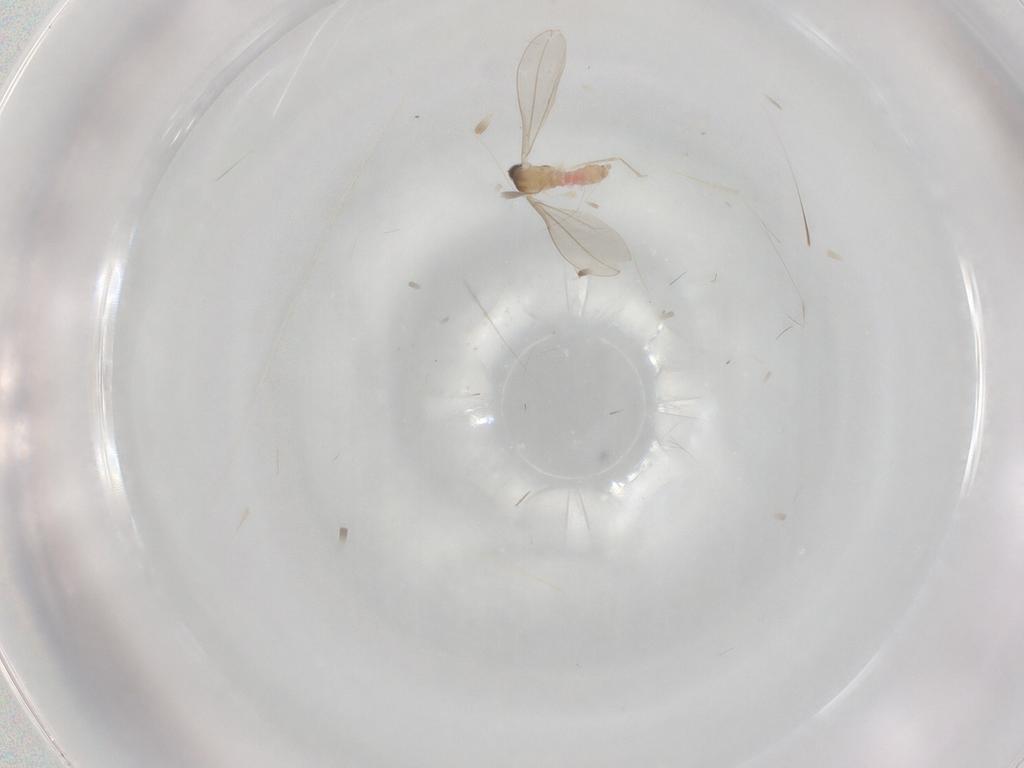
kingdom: Animalia
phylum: Arthropoda
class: Insecta
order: Diptera
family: Cecidomyiidae
